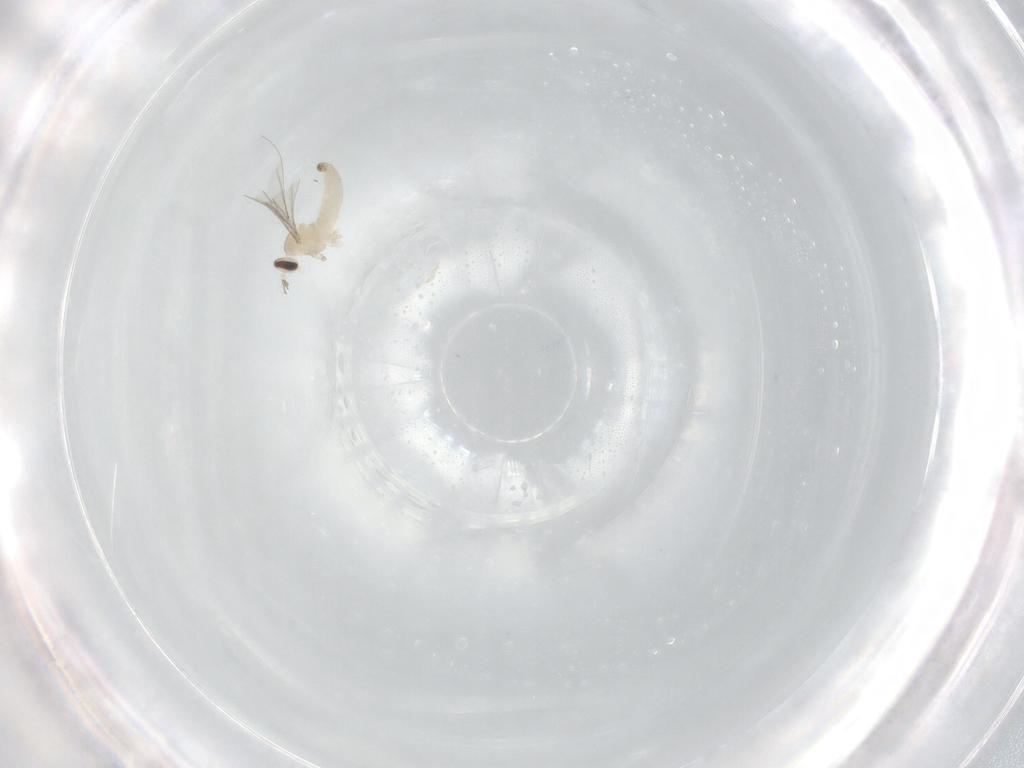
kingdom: Animalia
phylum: Arthropoda
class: Insecta
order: Diptera
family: Cecidomyiidae
